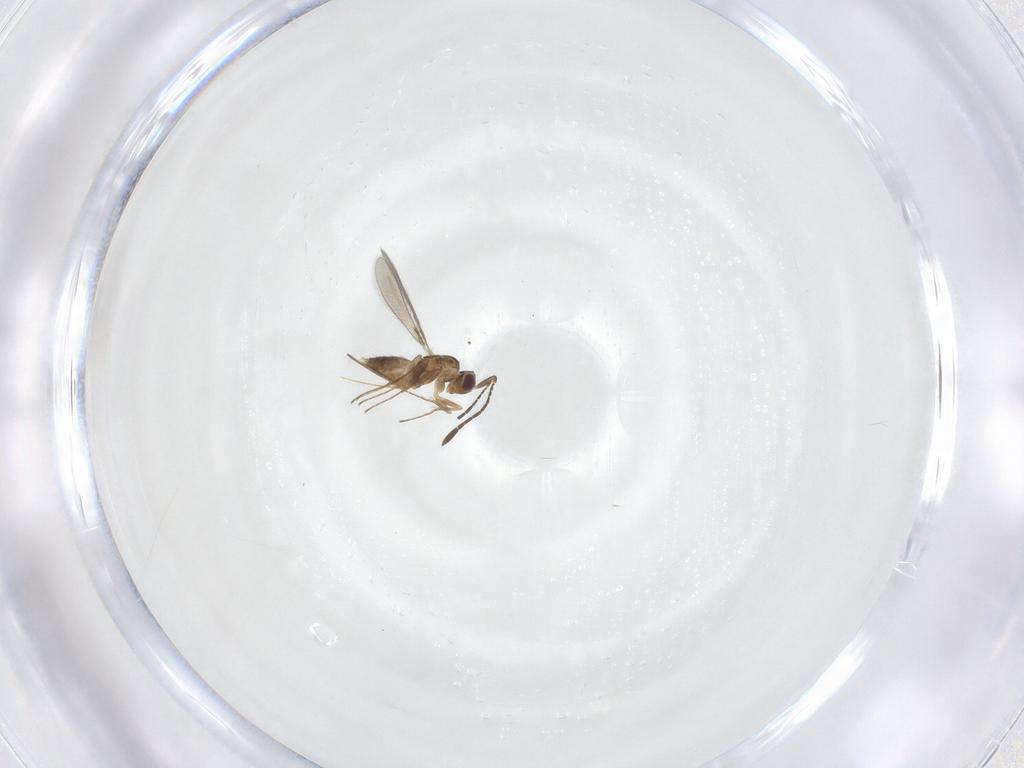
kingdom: Animalia
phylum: Arthropoda
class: Insecta
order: Hymenoptera
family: Mymaridae
